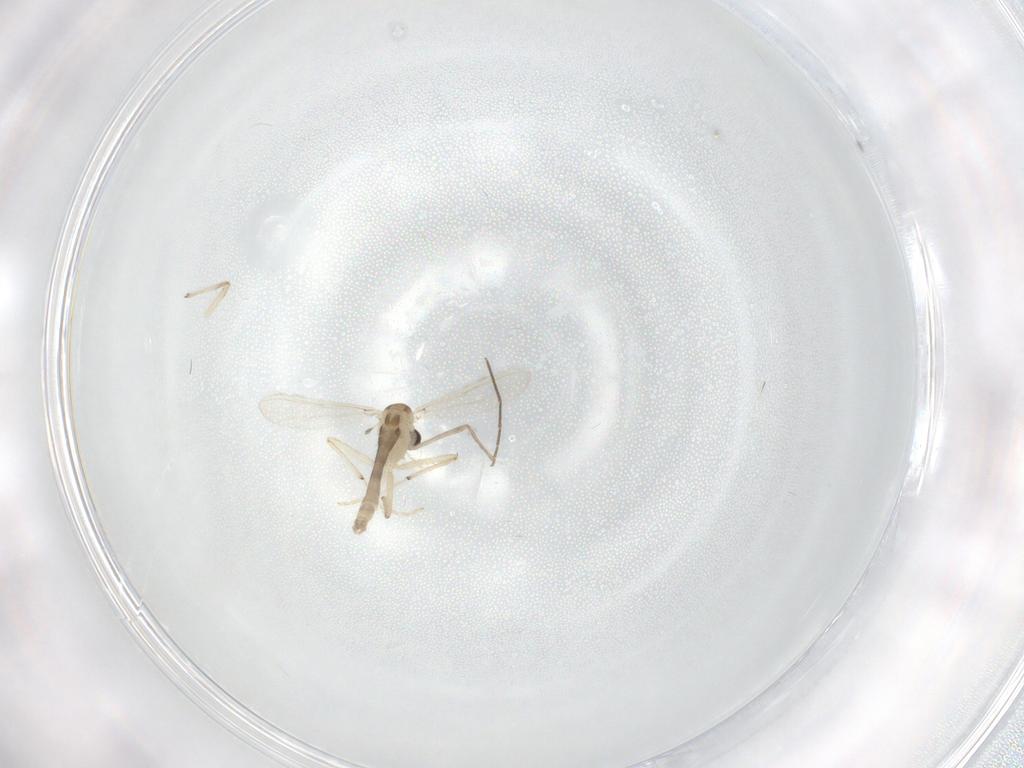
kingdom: Animalia
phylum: Arthropoda
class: Insecta
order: Diptera
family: Chironomidae
